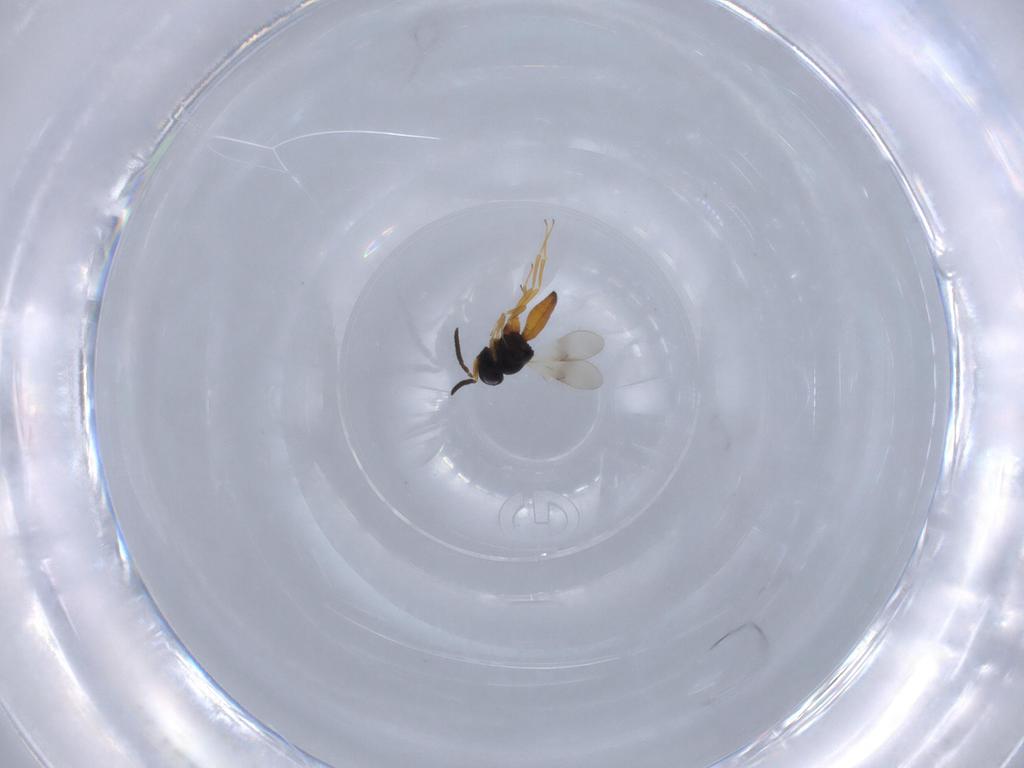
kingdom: Animalia
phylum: Arthropoda
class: Insecta
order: Hymenoptera
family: Scelionidae
